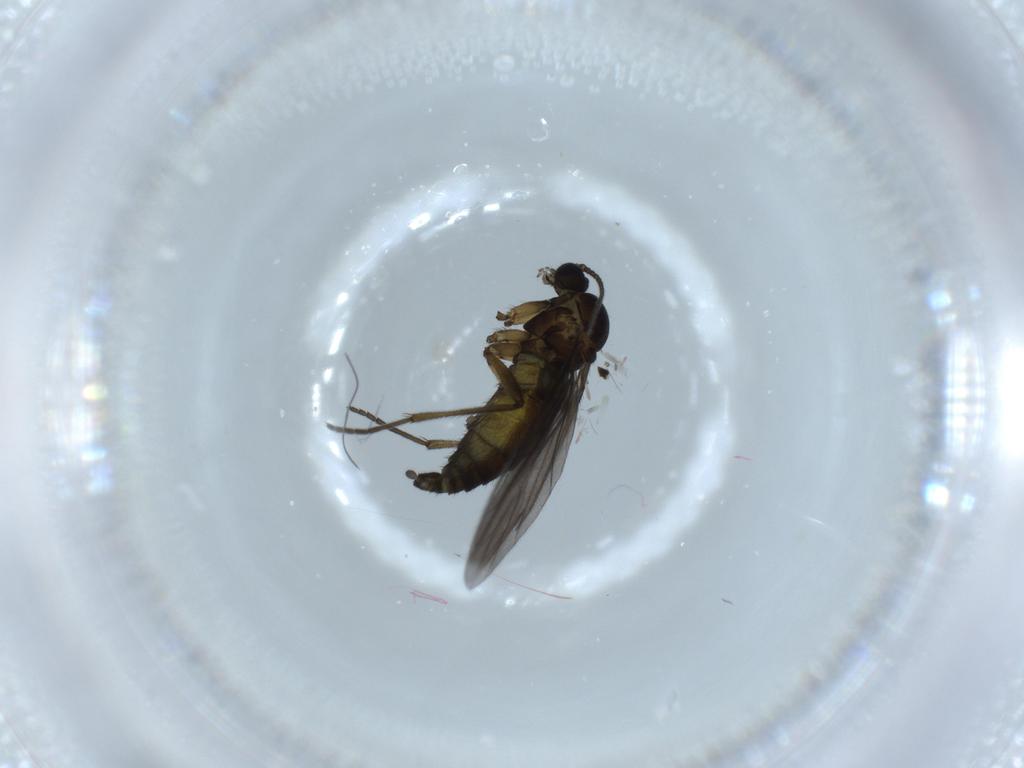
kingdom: Animalia
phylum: Arthropoda
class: Insecta
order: Diptera
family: Sciaridae
